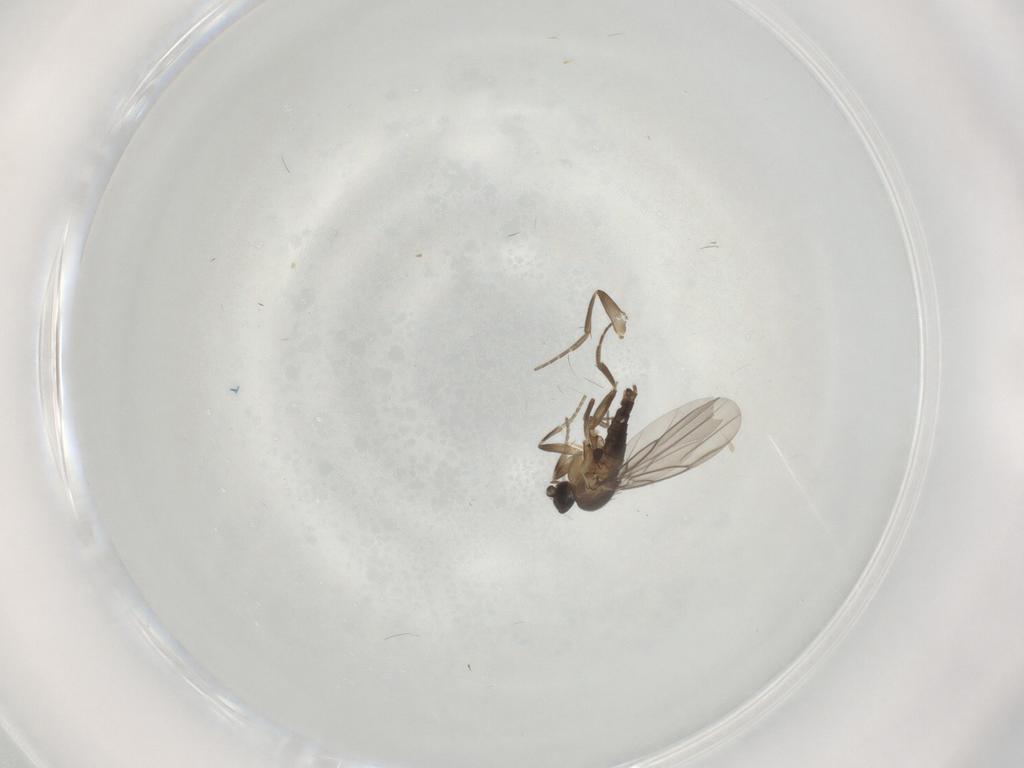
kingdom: Animalia
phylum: Arthropoda
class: Insecta
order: Diptera
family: Phoridae
